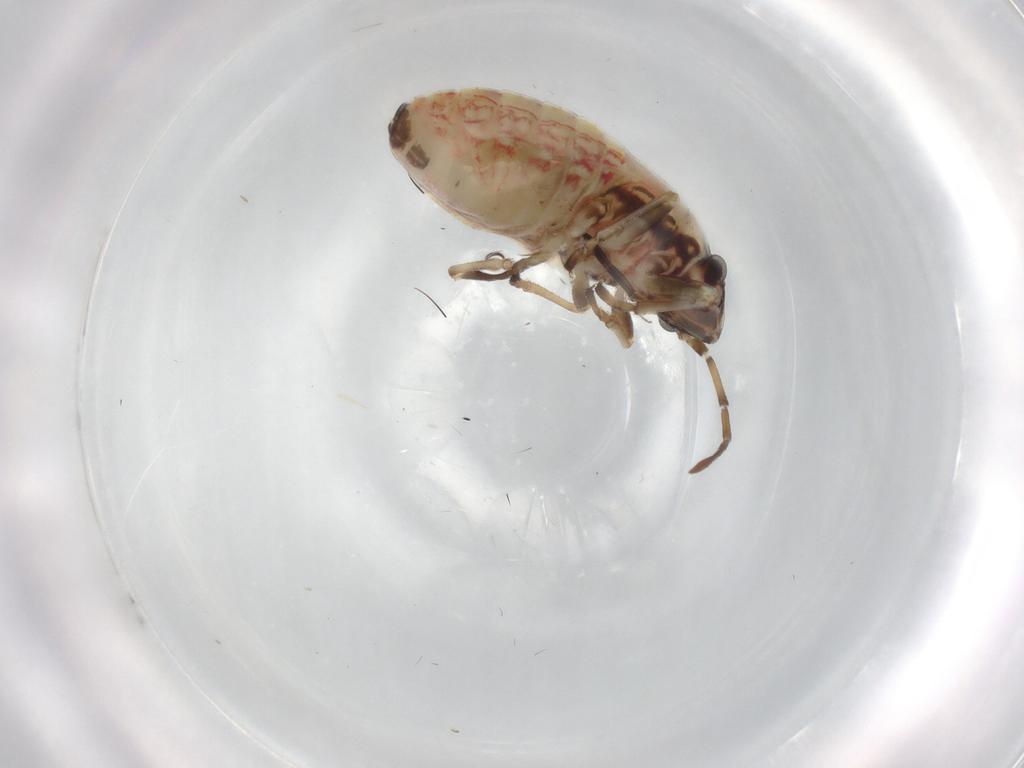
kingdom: Animalia
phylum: Arthropoda
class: Insecta
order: Hemiptera
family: Lygaeidae
